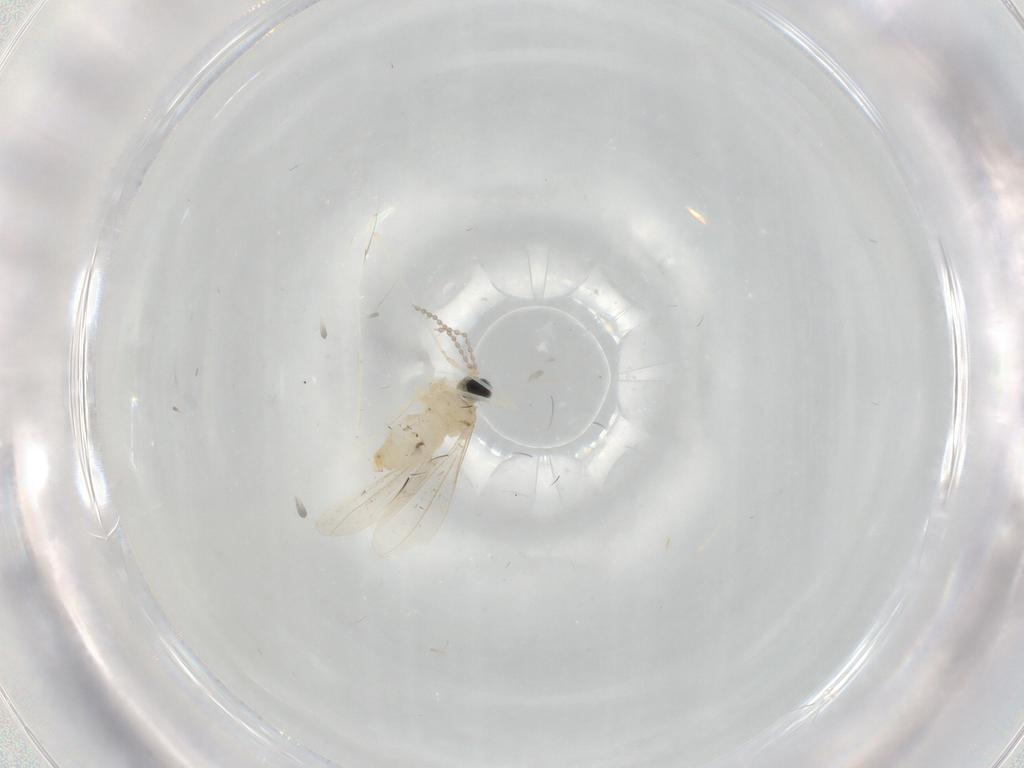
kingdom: Animalia
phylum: Arthropoda
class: Insecta
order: Diptera
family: Cecidomyiidae
